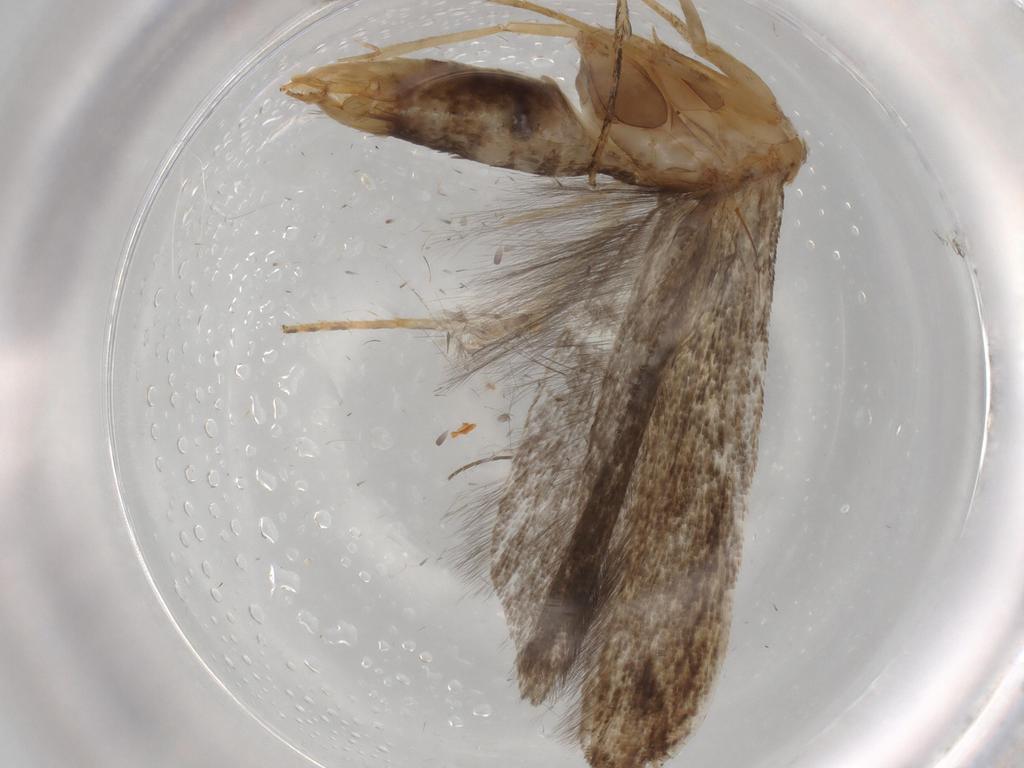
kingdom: Animalia
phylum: Arthropoda
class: Insecta
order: Lepidoptera
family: Gelechiidae
